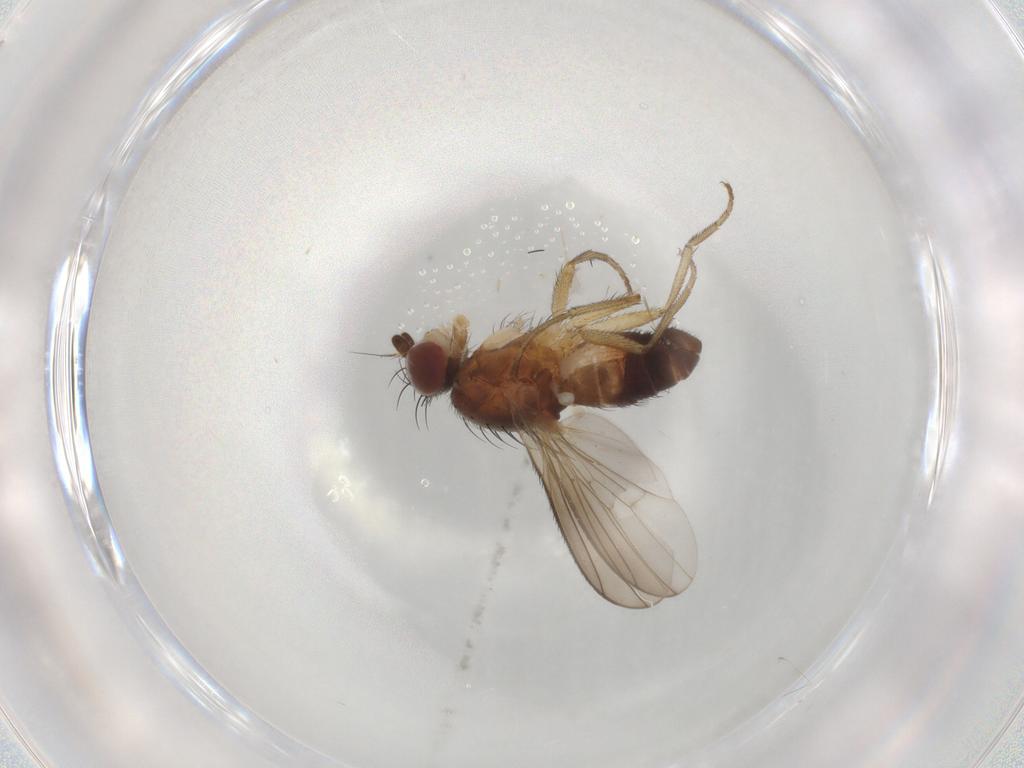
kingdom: Animalia
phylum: Arthropoda
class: Insecta
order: Diptera
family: Heleomyzidae
